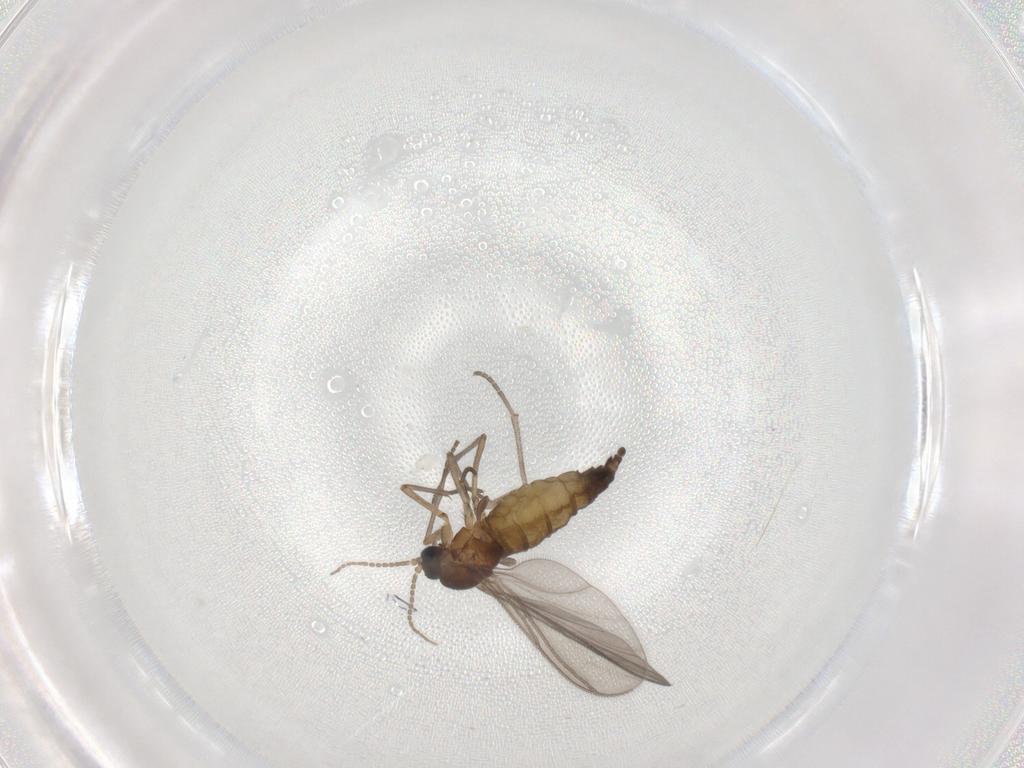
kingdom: Animalia
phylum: Arthropoda
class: Insecta
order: Diptera
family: Sciaridae
